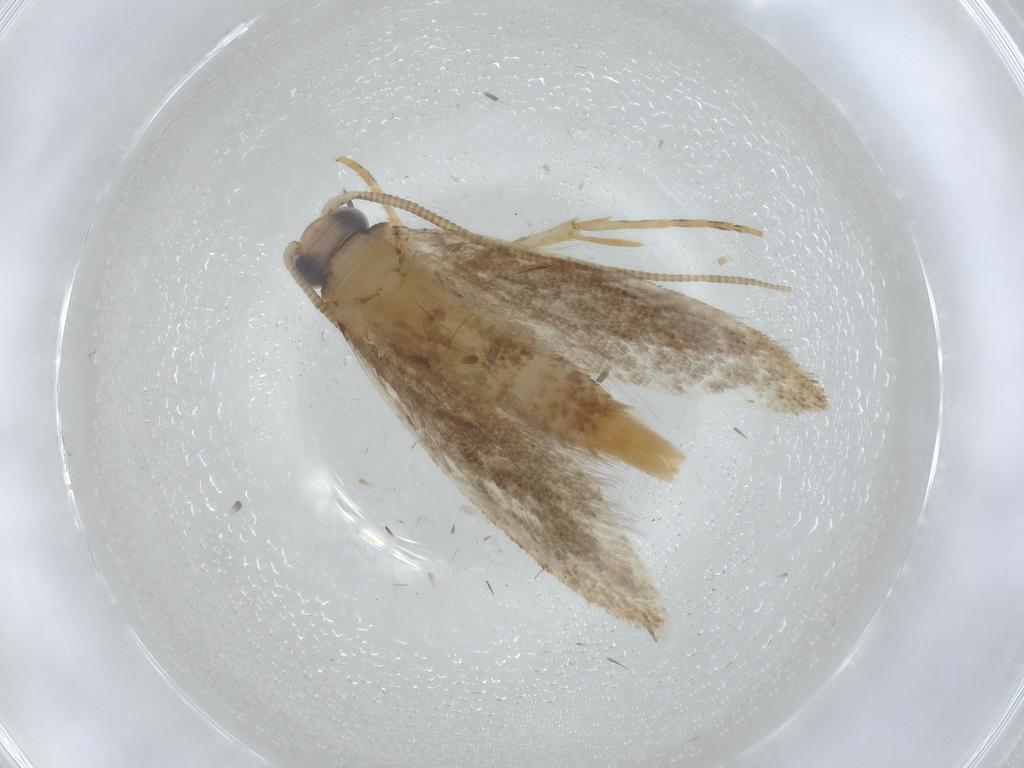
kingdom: Animalia
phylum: Arthropoda
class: Insecta
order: Lepidoptera
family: Tineidae
